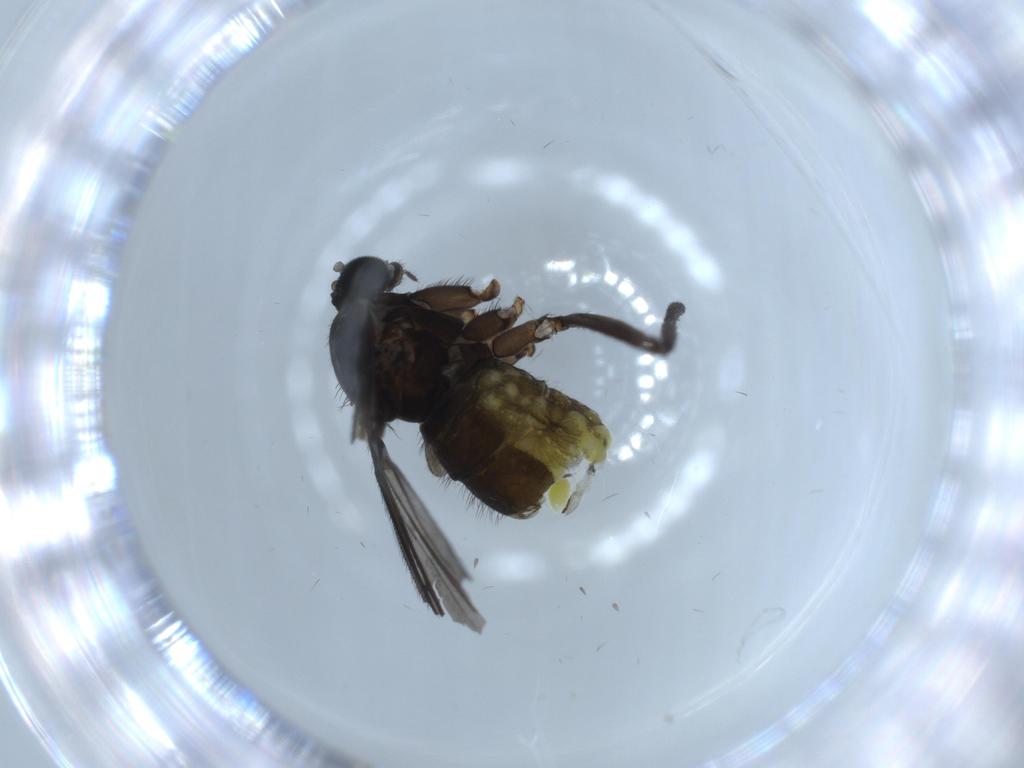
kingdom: Animalia
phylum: Arthropoda
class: Insecta
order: Diptera
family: Sciaridae
